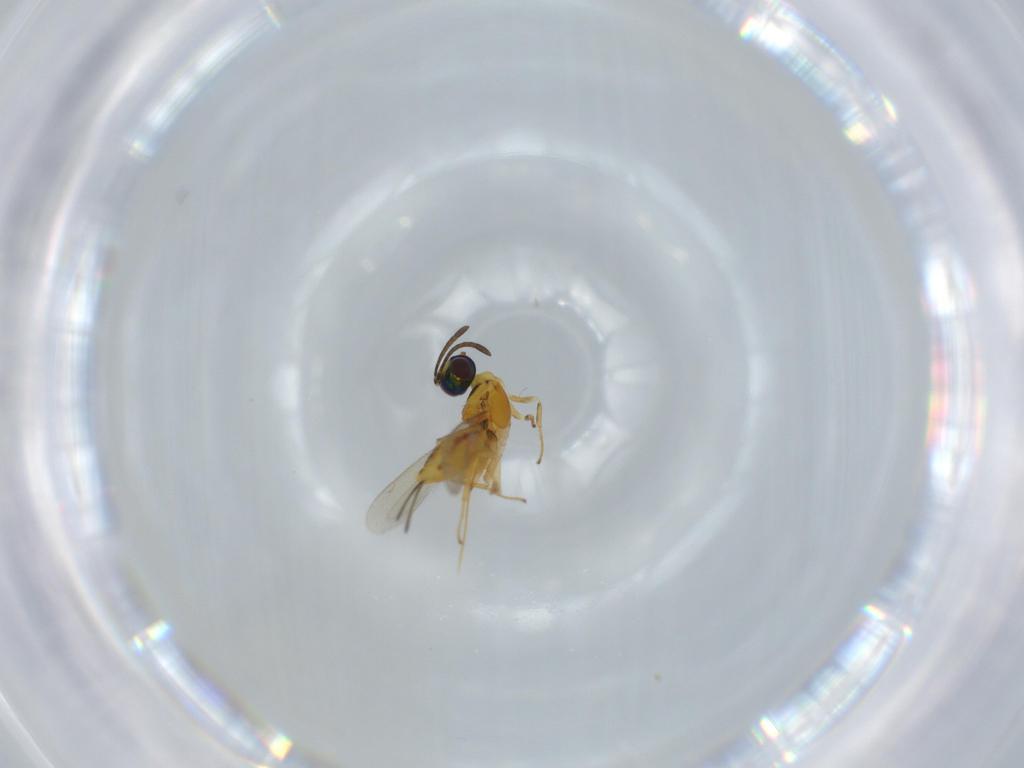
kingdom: Animalia
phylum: Arthropoda
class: Insecta
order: Hymenoptera
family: Eupelmidae
